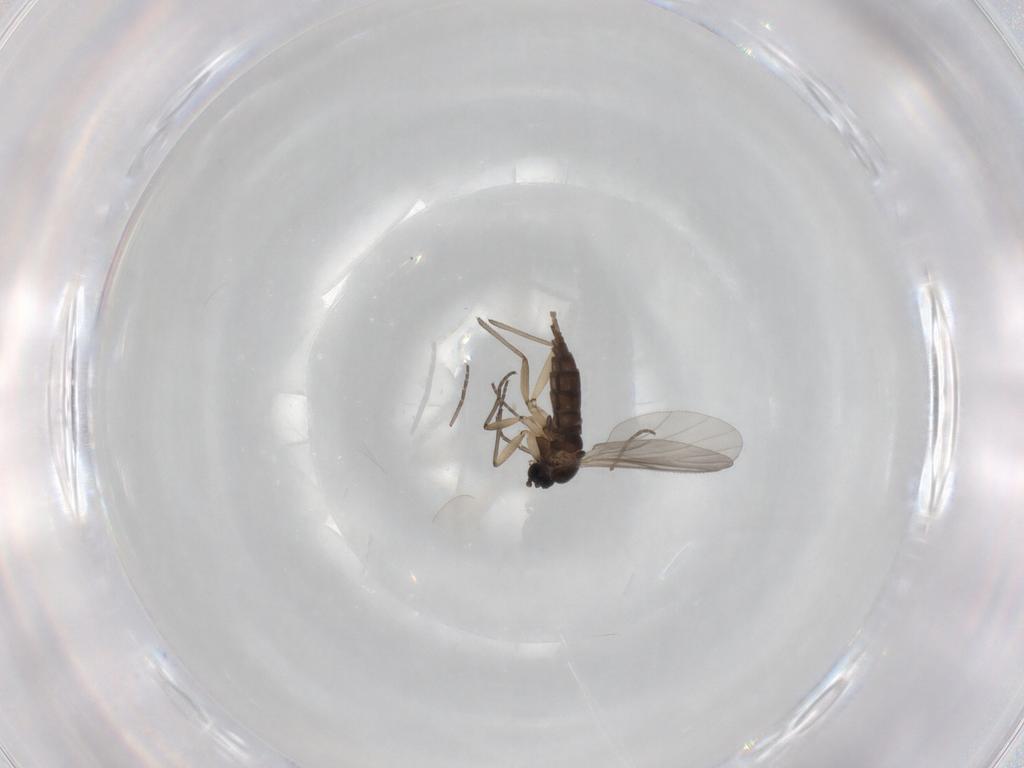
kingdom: Animalia
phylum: Arthropoda
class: Insecta
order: Diptera
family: Sciaridae
